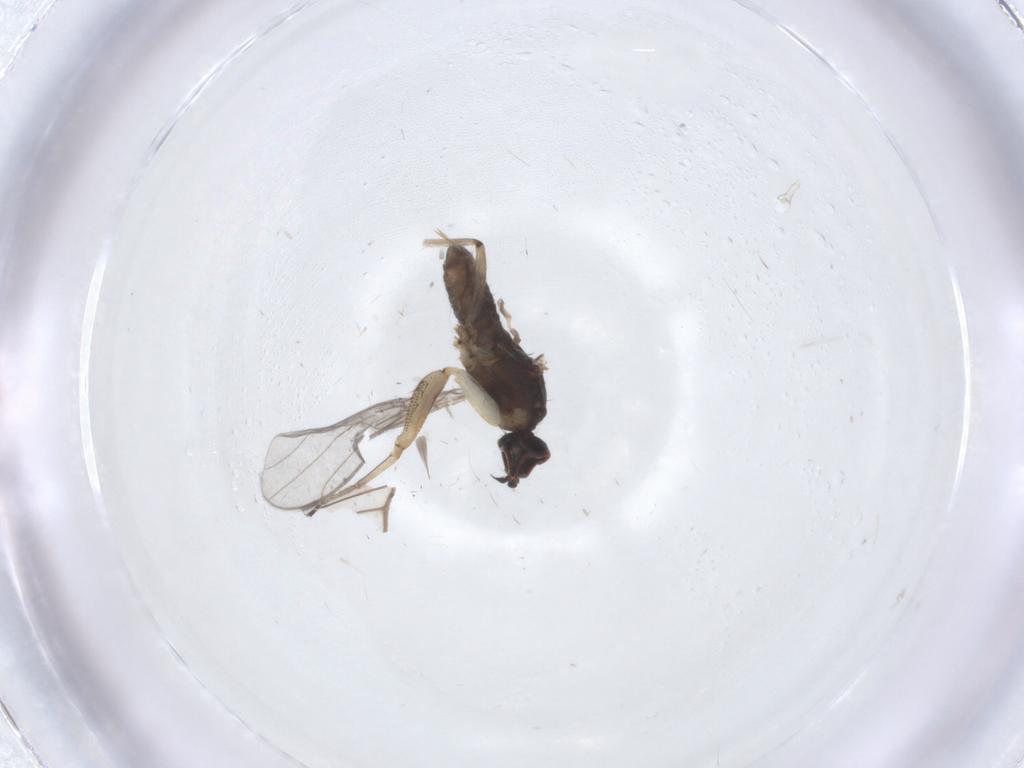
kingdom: Animalia
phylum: Arthropoda
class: Insecta
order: Diptera
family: Empididae
